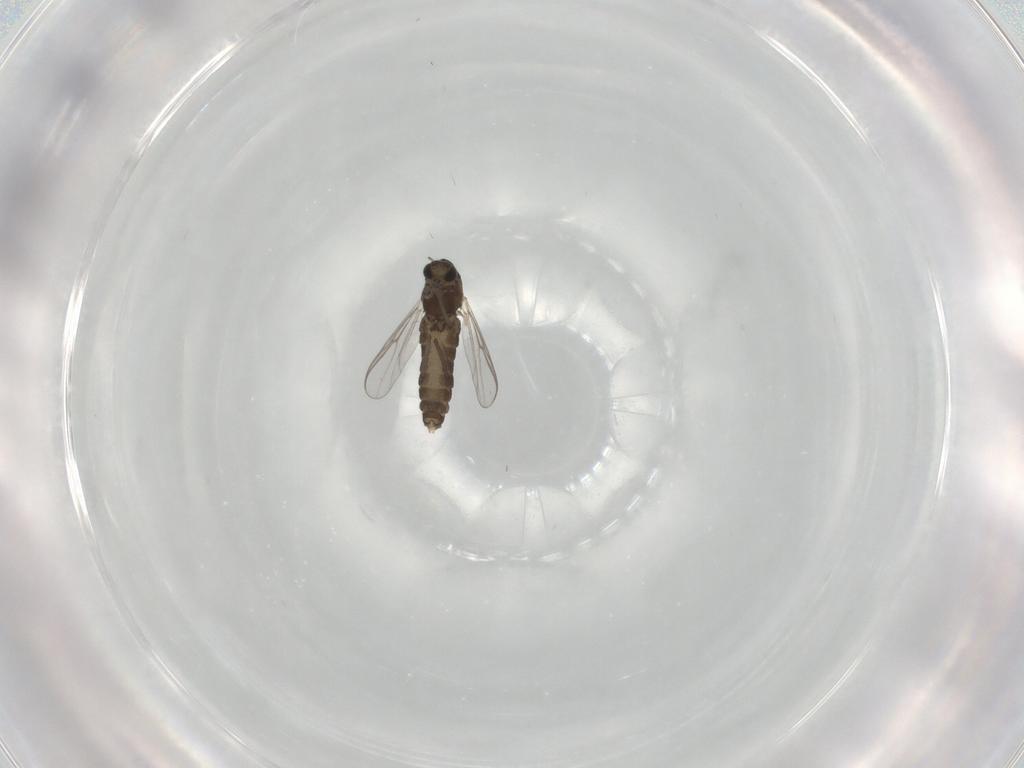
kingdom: Animalia
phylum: Arthropoda
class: Insecta
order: Diptera
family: Chironomidae
